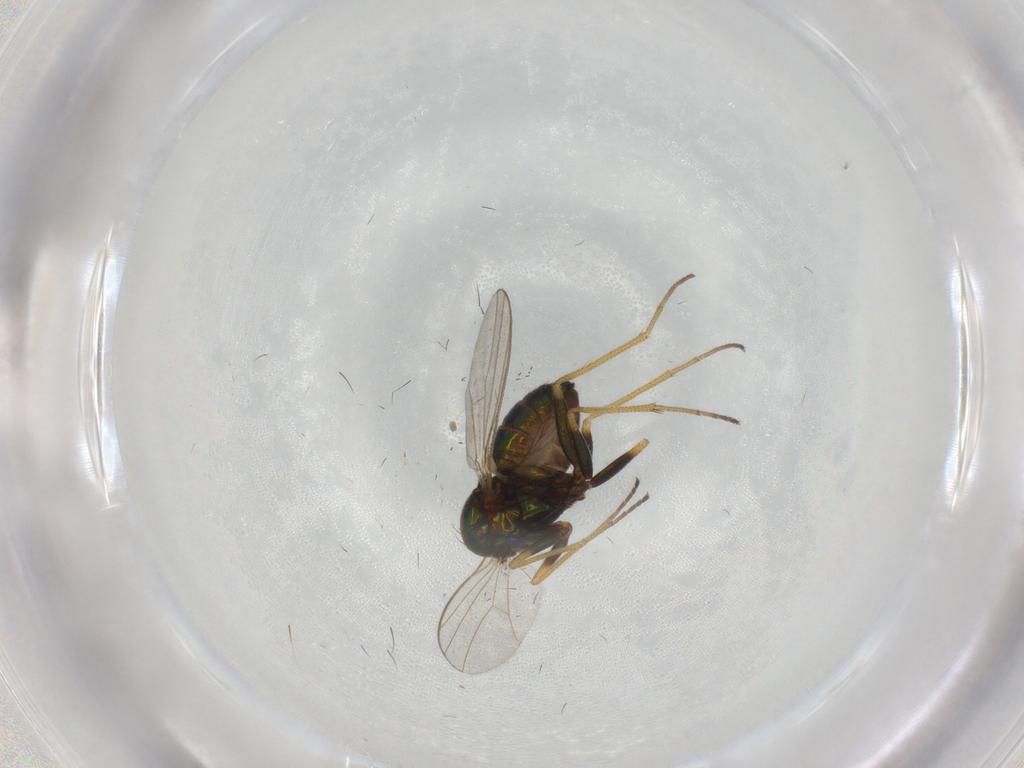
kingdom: Animalia
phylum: Arthropoda
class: Insecta
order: Diptera
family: Dolichopodidae
